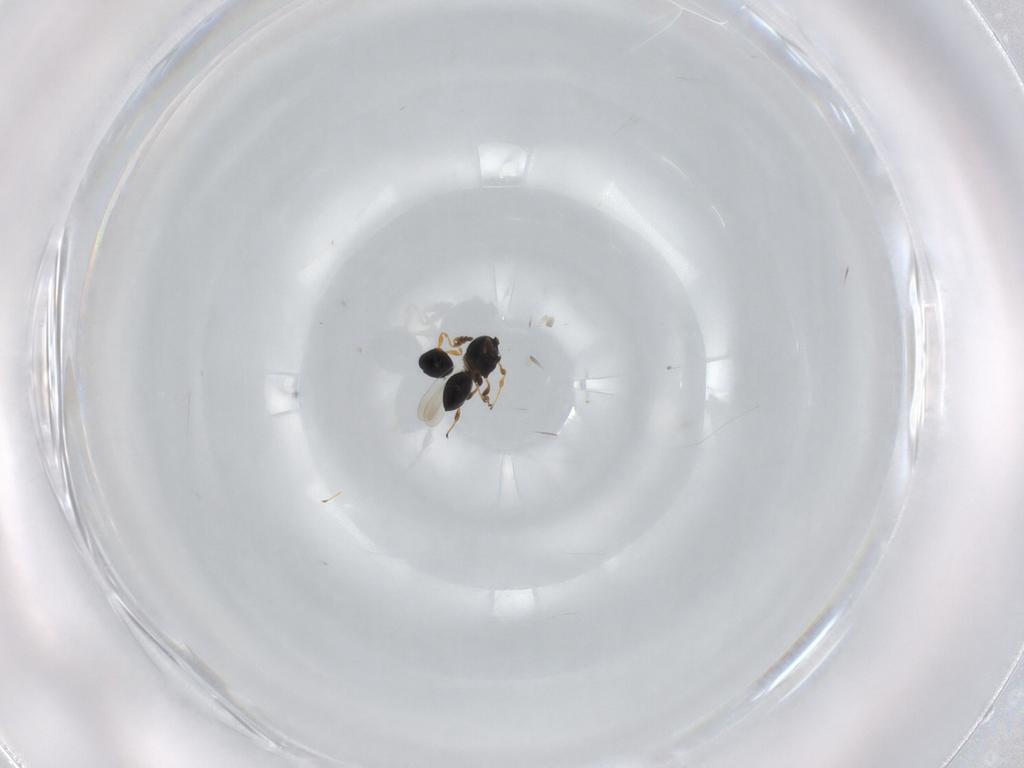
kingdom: Animalia
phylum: Arthropoda
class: Insecta
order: Hymenoptera
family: Platygastridae
